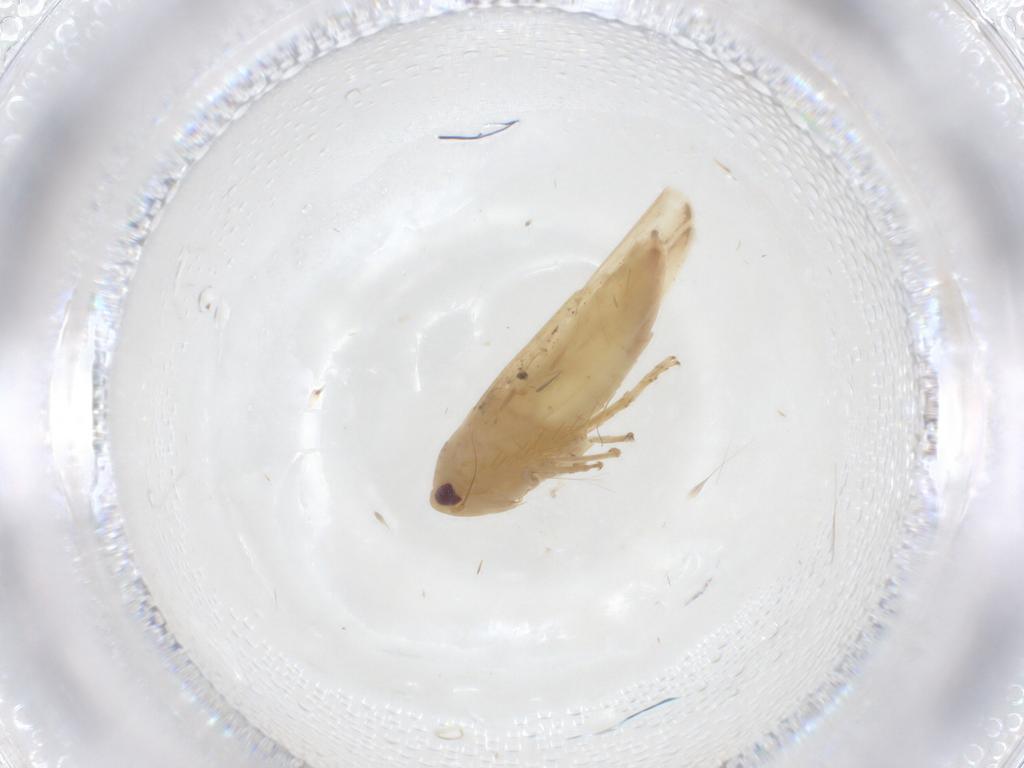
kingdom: Animalia
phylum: Arthropoda
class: Insecta
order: Hemiptera
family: Cicadellidae
